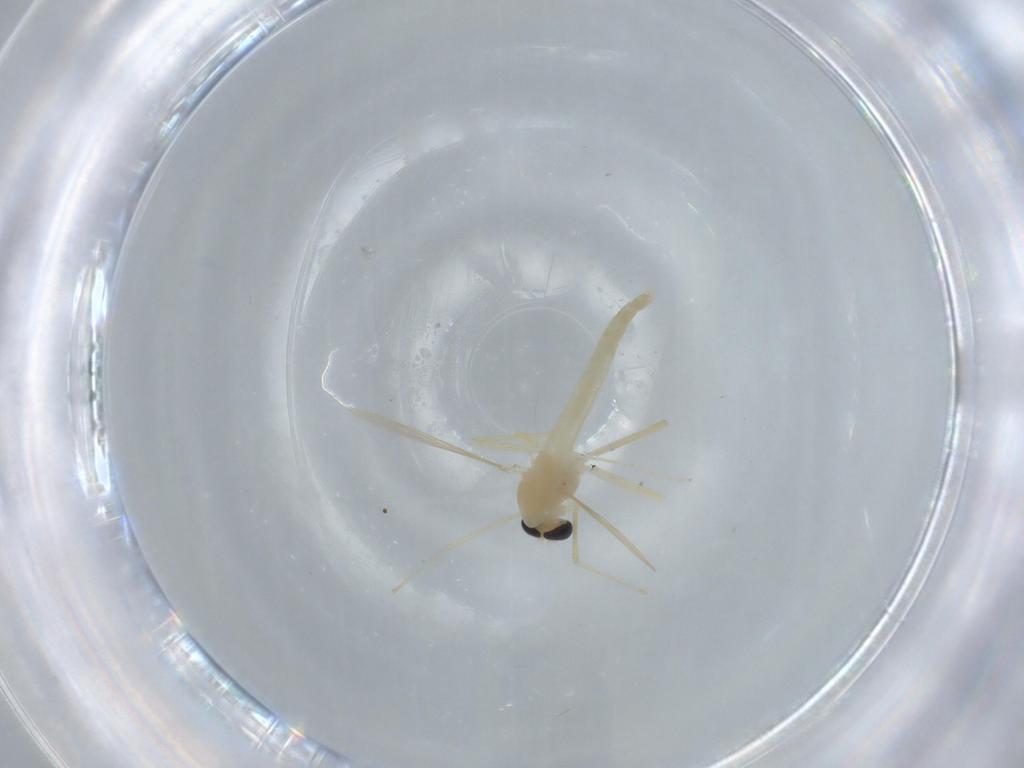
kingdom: Animalia
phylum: Arthropoda
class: Insecta
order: Diptera
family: Chironomidae
